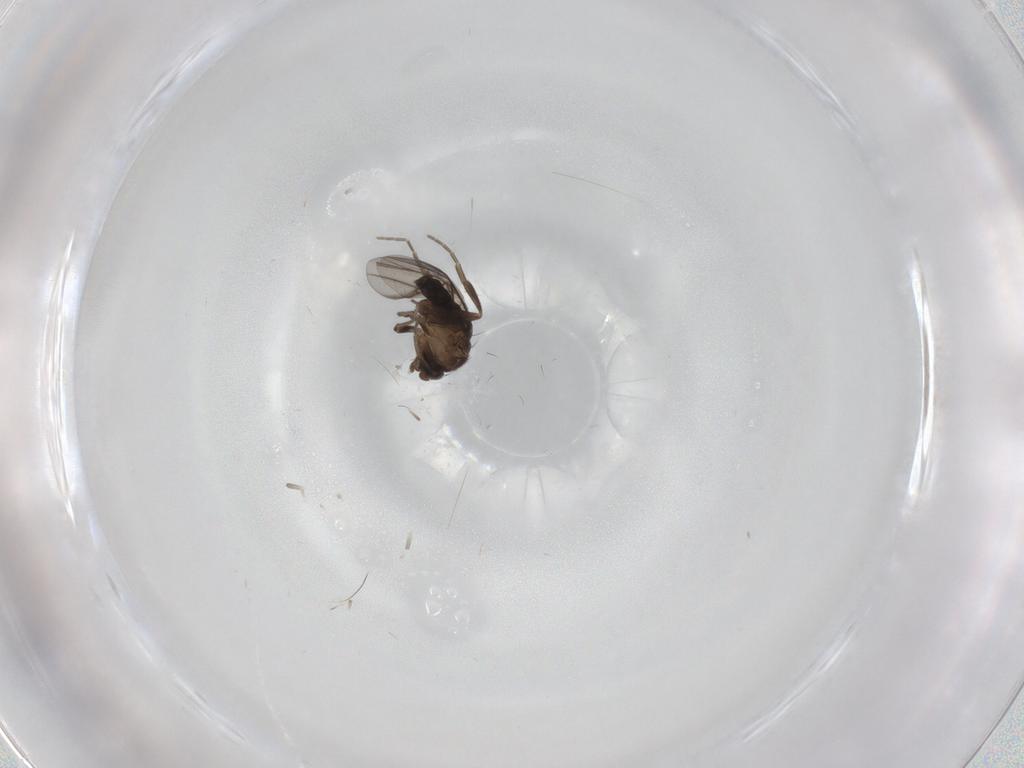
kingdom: Animalia
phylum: Arthropoda
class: Insecta
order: Diptera
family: Phoridae
